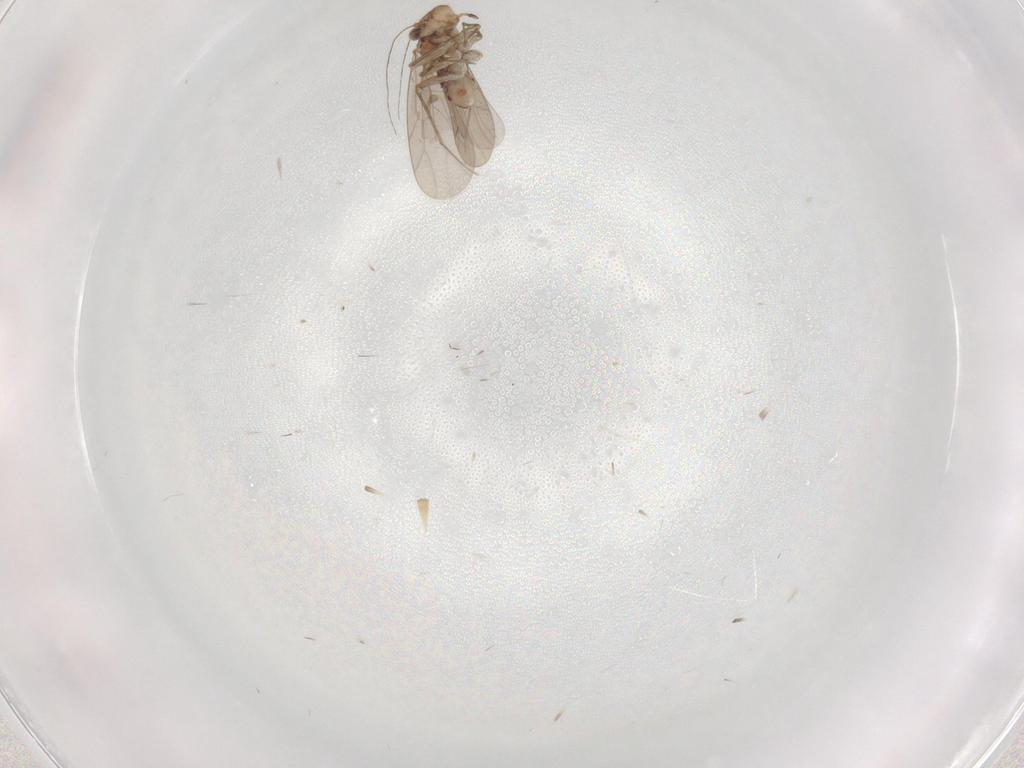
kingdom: Animalia
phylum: Arthropoda
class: Insecta
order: Psocodea
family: Lepidopsocidae
